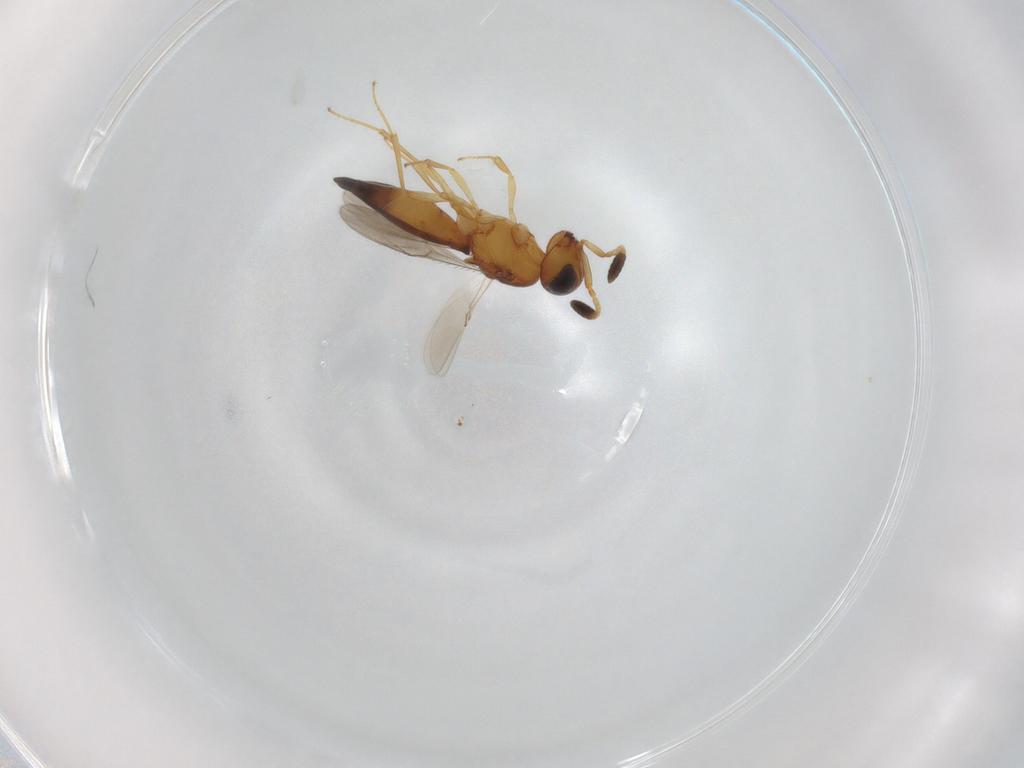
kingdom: Animalia
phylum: Arthropoda
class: Insecta
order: Hymenoptera
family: Scelionidae
